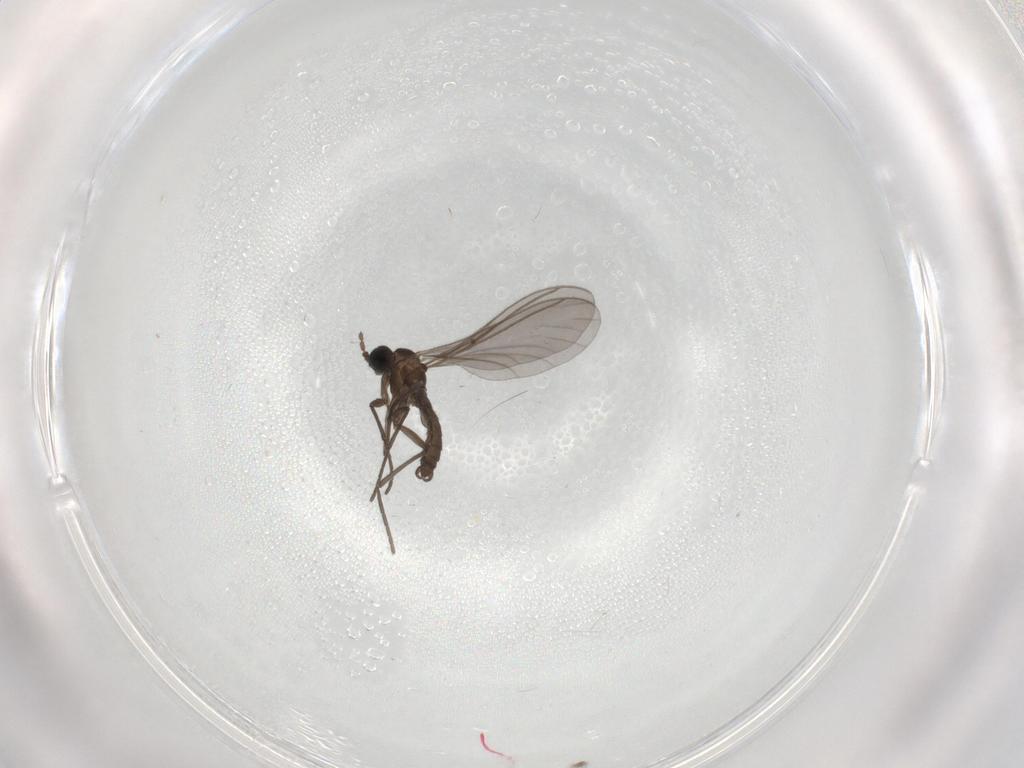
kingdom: Animalia
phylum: Arthropoda
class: Insecta
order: Diptera
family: Sciaridae
